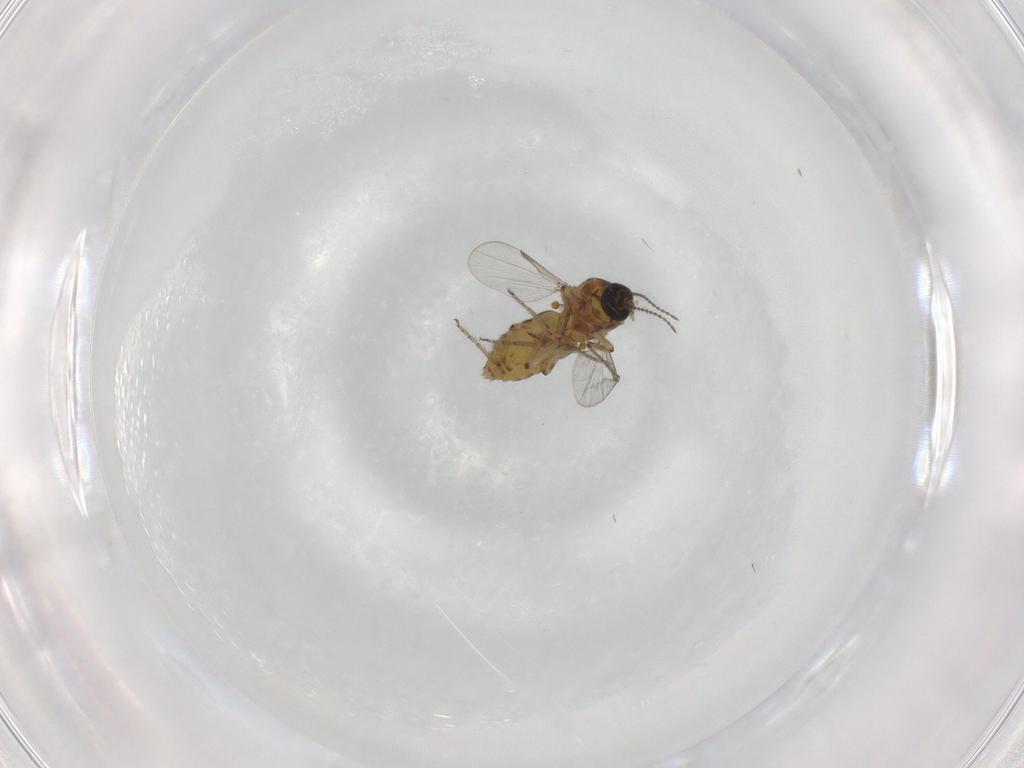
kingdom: Animalia
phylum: Arthropoda
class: Insecta
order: Diptera
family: Ceratopogonidae
